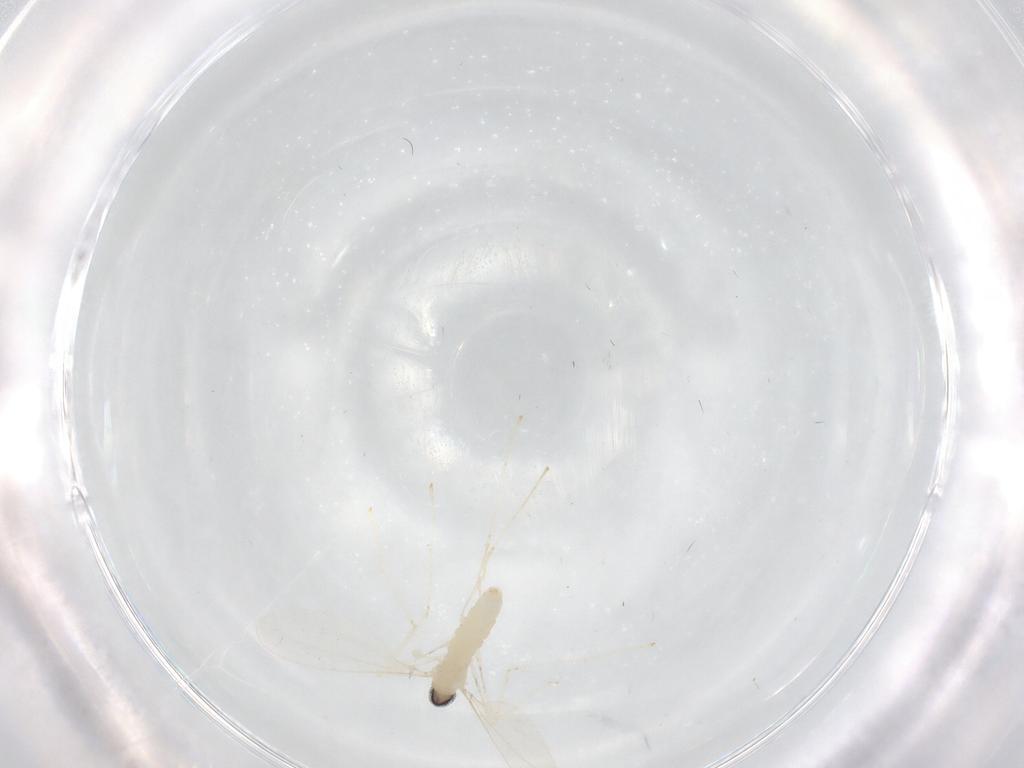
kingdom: Animalia
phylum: Arthropoda
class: Insecta
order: Diptera
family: Cecidomyiidae
